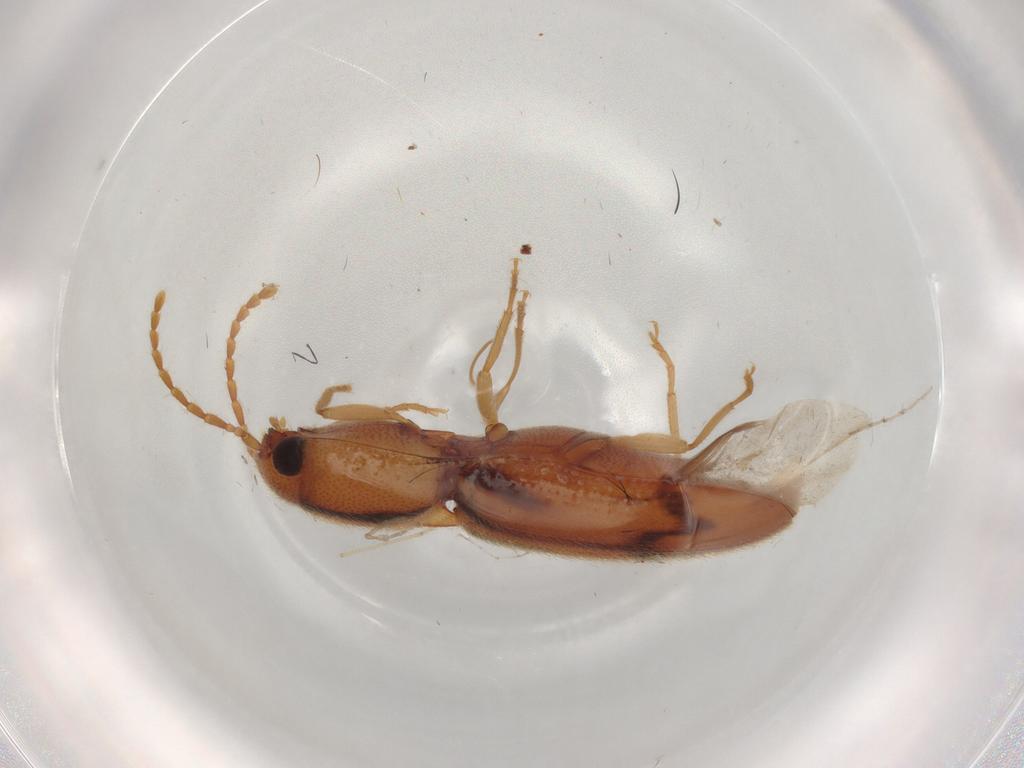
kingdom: Animalia
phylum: Arthropoda
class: Insecta
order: Coleoptera
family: Elateridae
